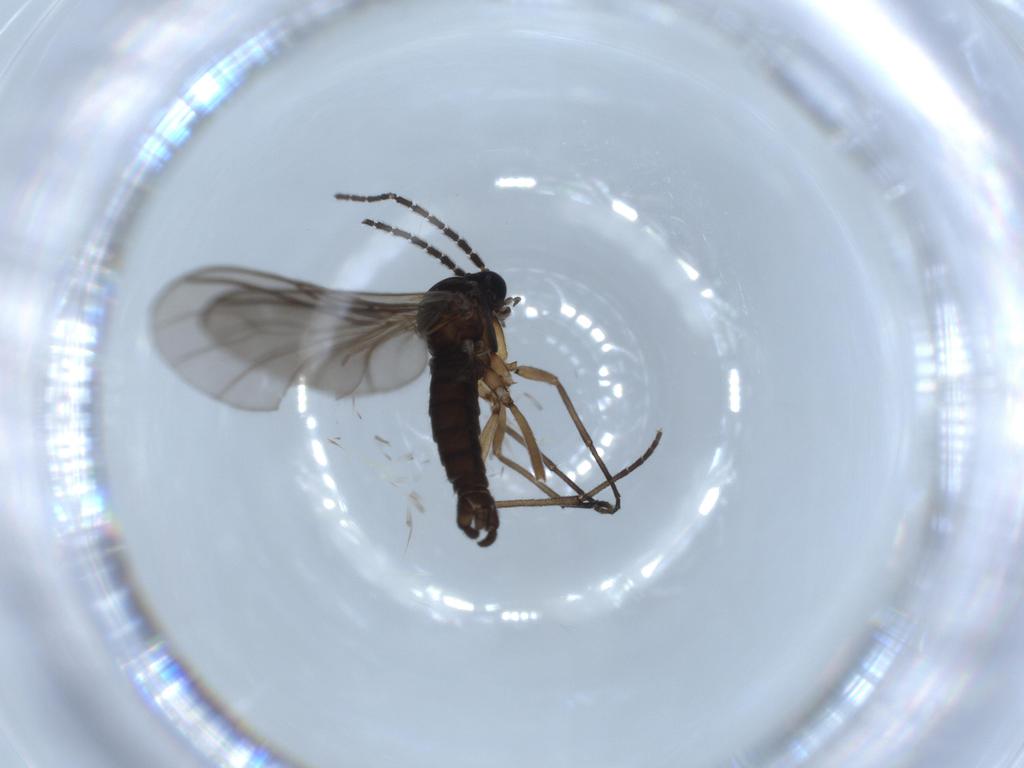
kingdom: Animalia
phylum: Arthropoda
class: Insecta
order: Diptera
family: Sciaridae
